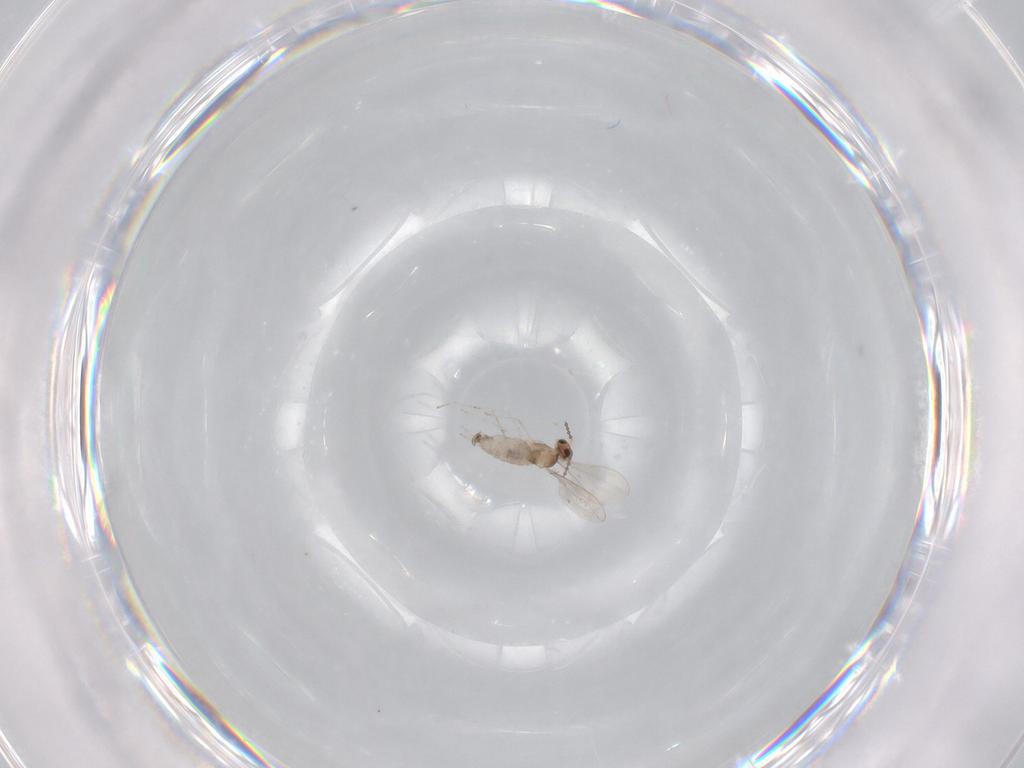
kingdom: Animalia
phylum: Arthropoda
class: Insecta
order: Diptera
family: Cecidomyiidae
